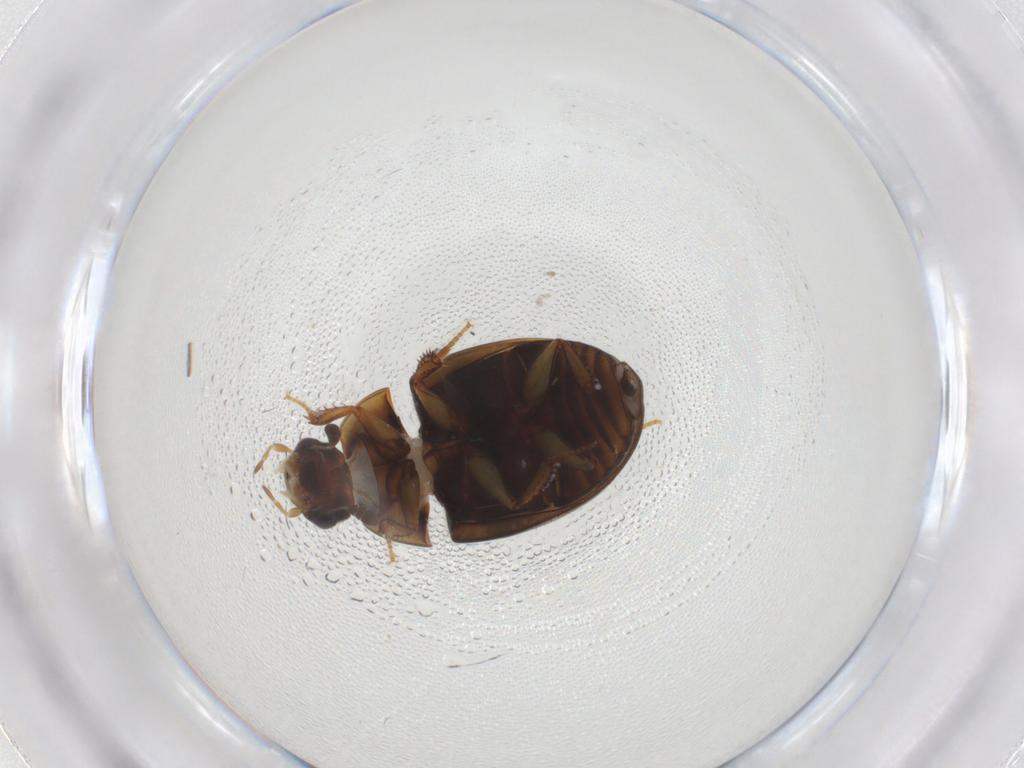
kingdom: Animalia
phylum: Arthropoda
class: Insecta
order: Coleoptera
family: Hydrophilidae
